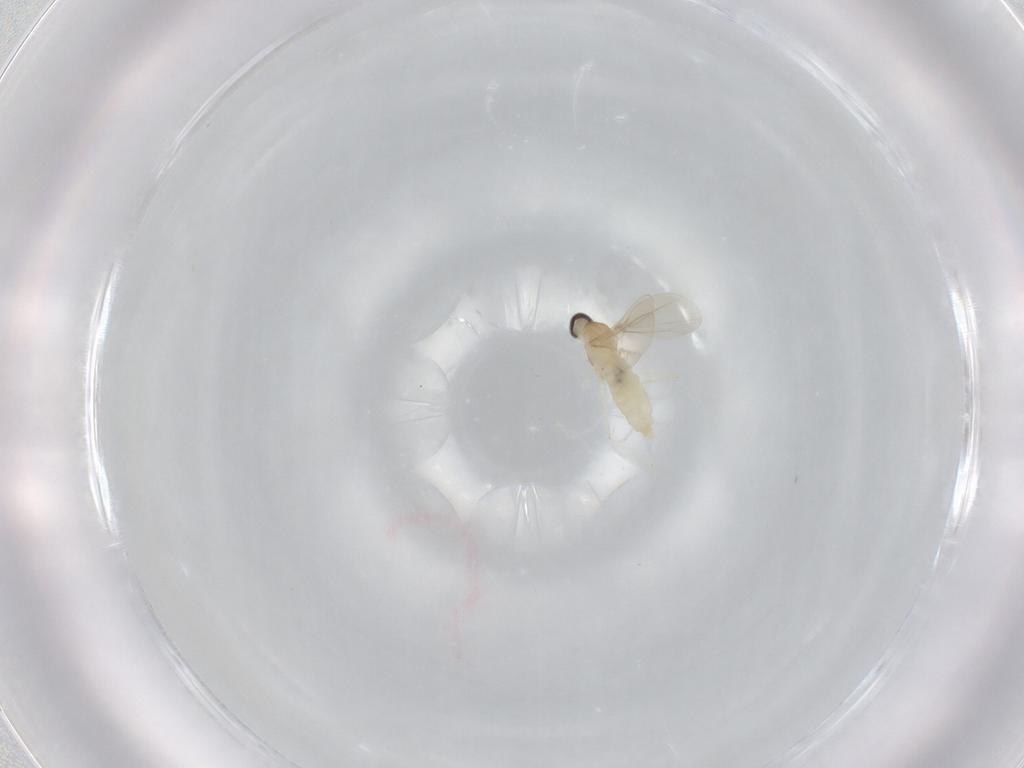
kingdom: Animalia
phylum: Arthropoda
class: Insecta
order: Diptera
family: Cecidomyiidae
